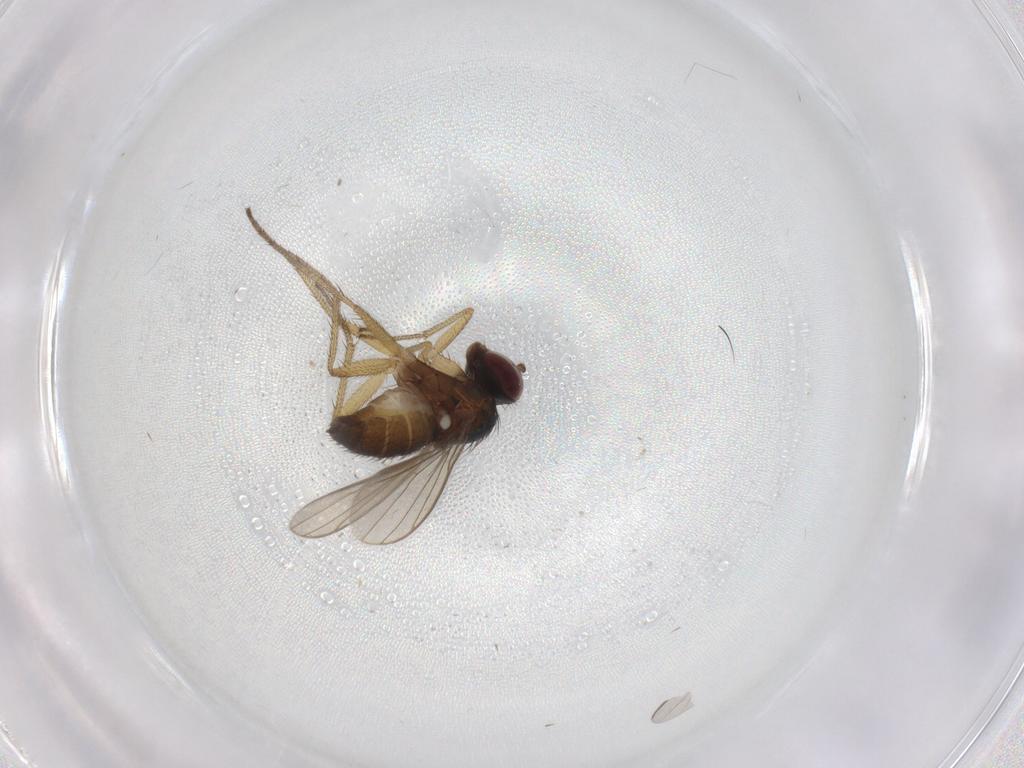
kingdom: Animalia
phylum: Arthropoda
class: Insecta
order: Diptera
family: Dolichopodidae
